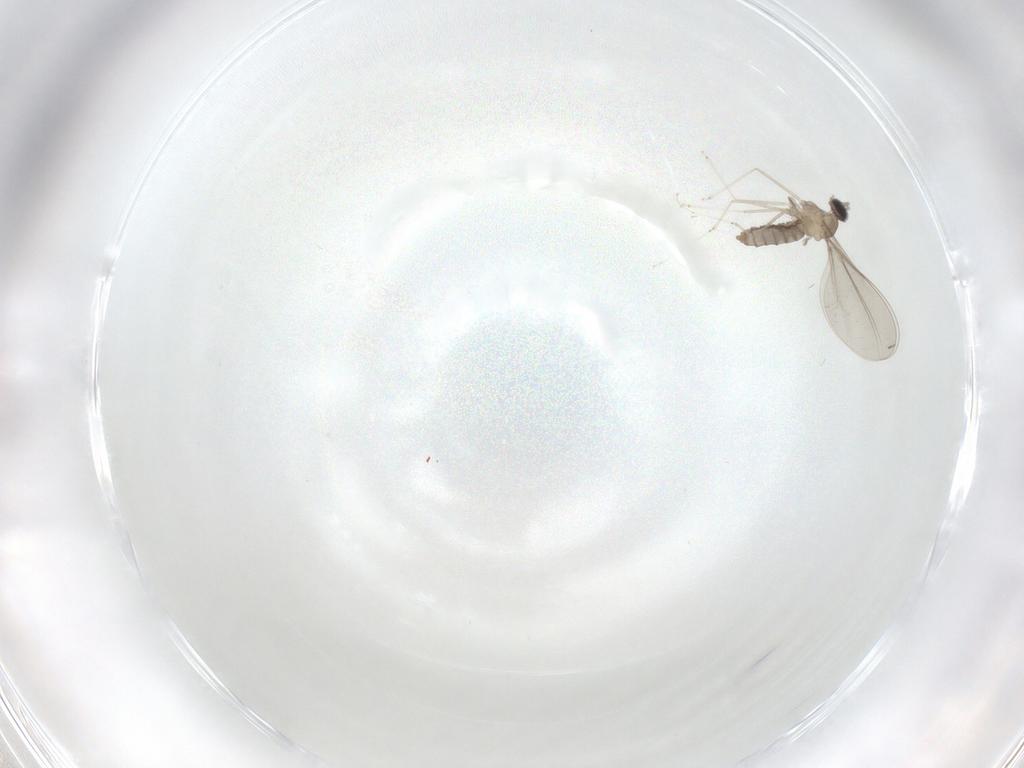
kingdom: Animalia
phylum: Arthropoda
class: Insecta
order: Diptera
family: Cecidomyiidae
